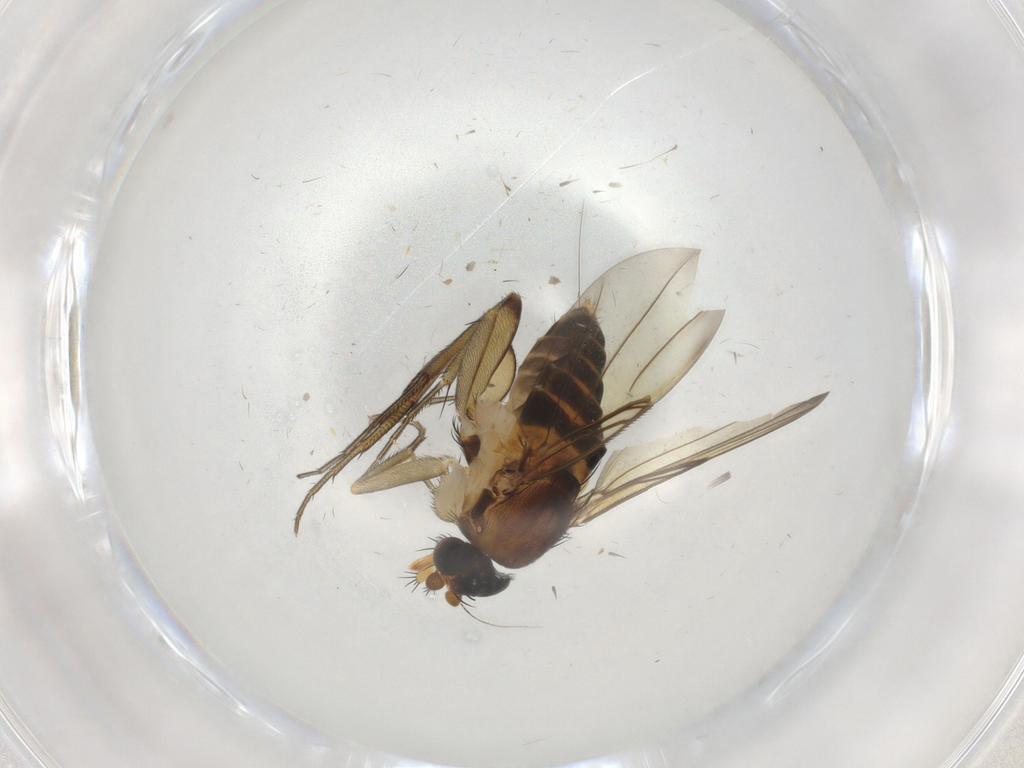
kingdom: Animalia
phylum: Arthropoda
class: Insecta
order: Diptera
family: Phoridae
